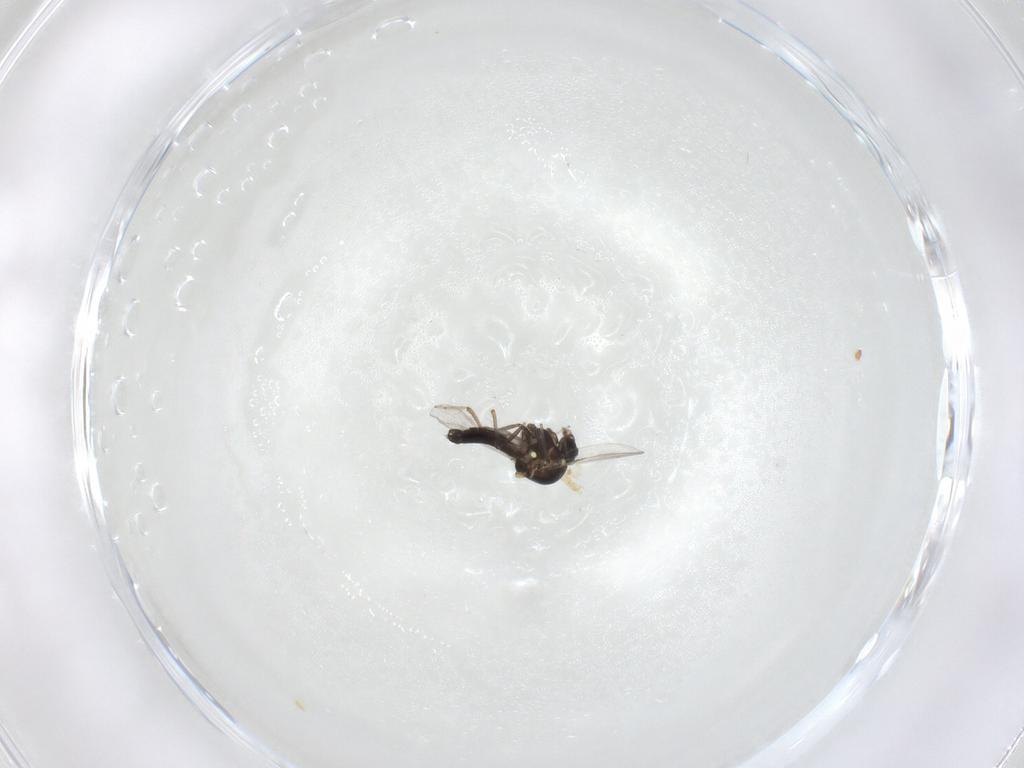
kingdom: Animalia
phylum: Arthropoda
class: Insecta
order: Diptera
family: Ceratopogonidae
